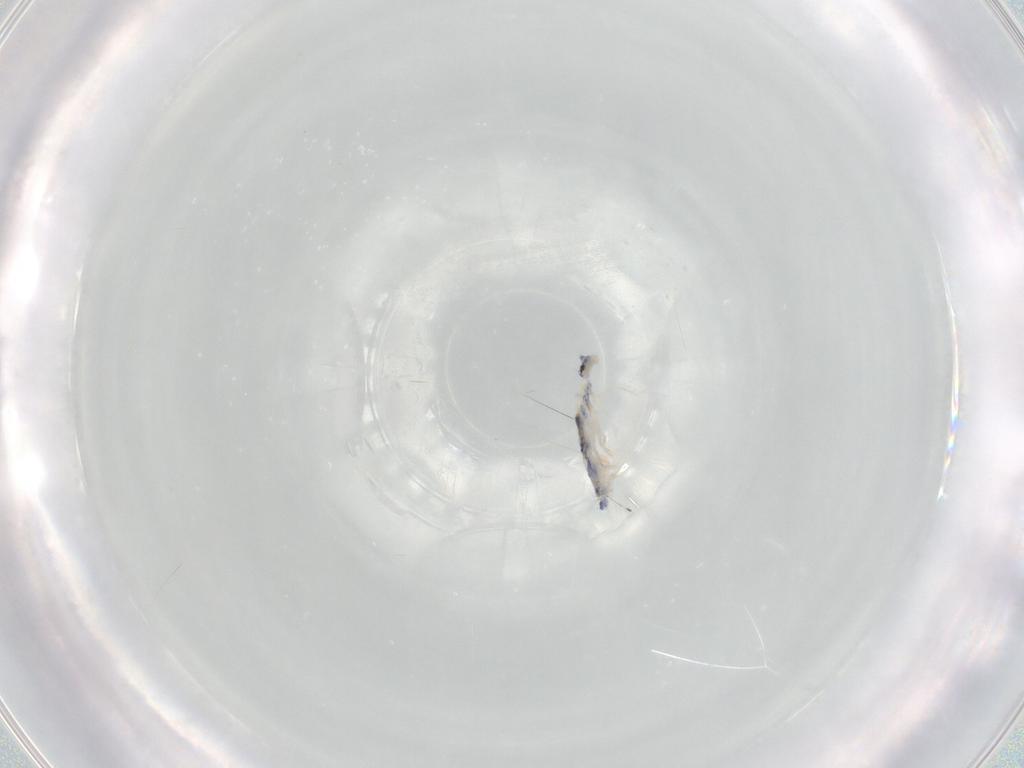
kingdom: Animalia
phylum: Arthropoda
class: Collembola
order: Entomobryomorpha
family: Entomobryidae
